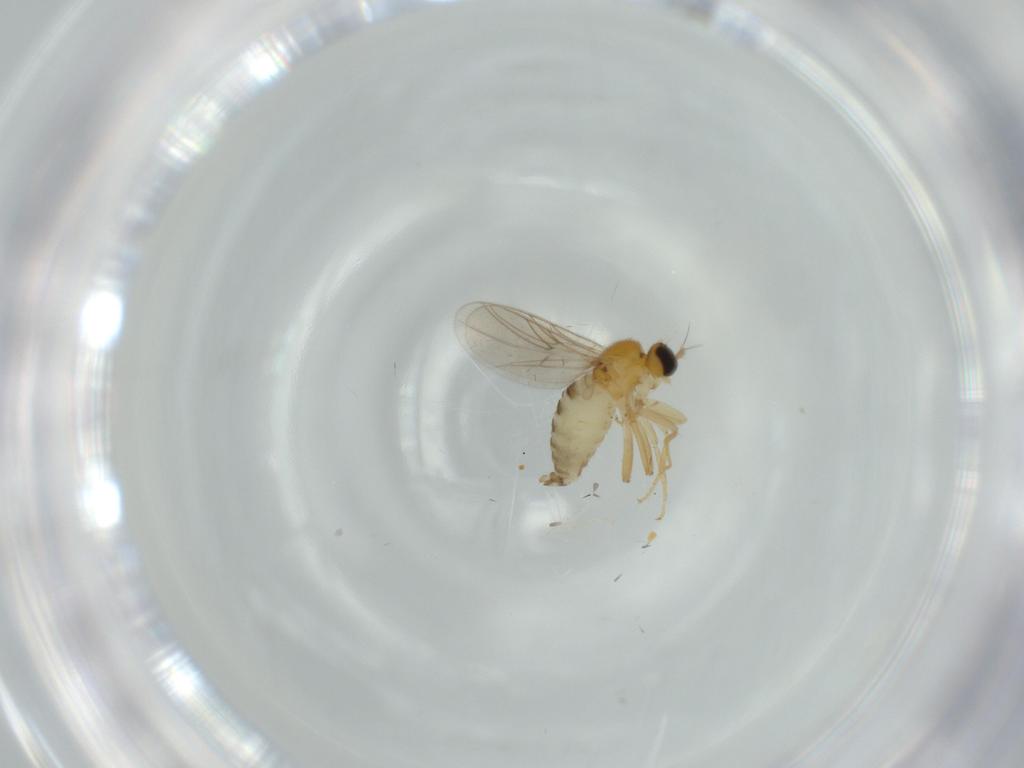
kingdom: Animalia
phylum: Arthropoda
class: Insecta
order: Diptera
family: Hybotidae
